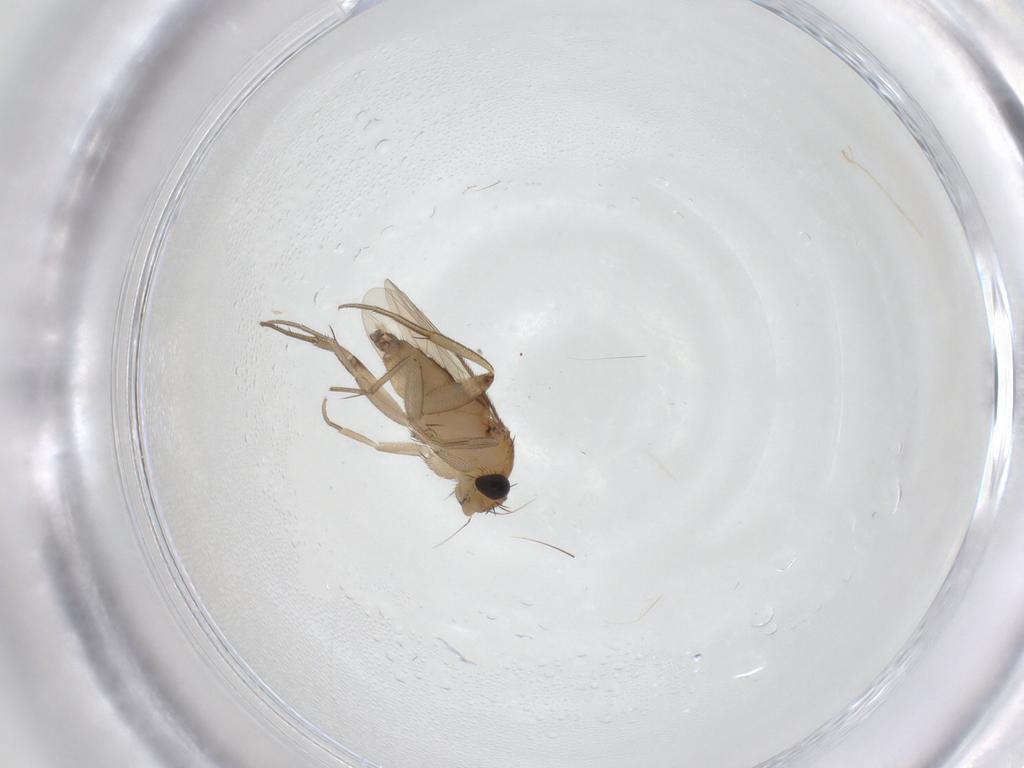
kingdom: Animalia
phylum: Arthropoda
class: Insecta
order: Diptera
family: Phoridae
